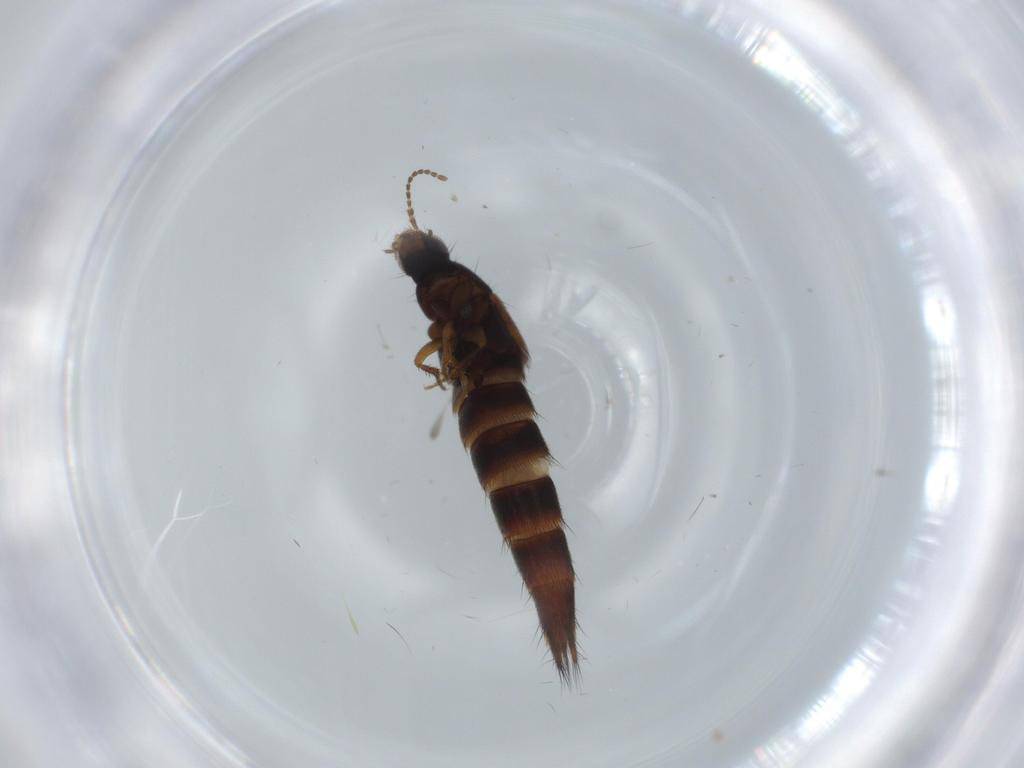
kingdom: Animalia
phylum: Arthropoda
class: Insecta
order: Coleoptera
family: Staphylinidae
